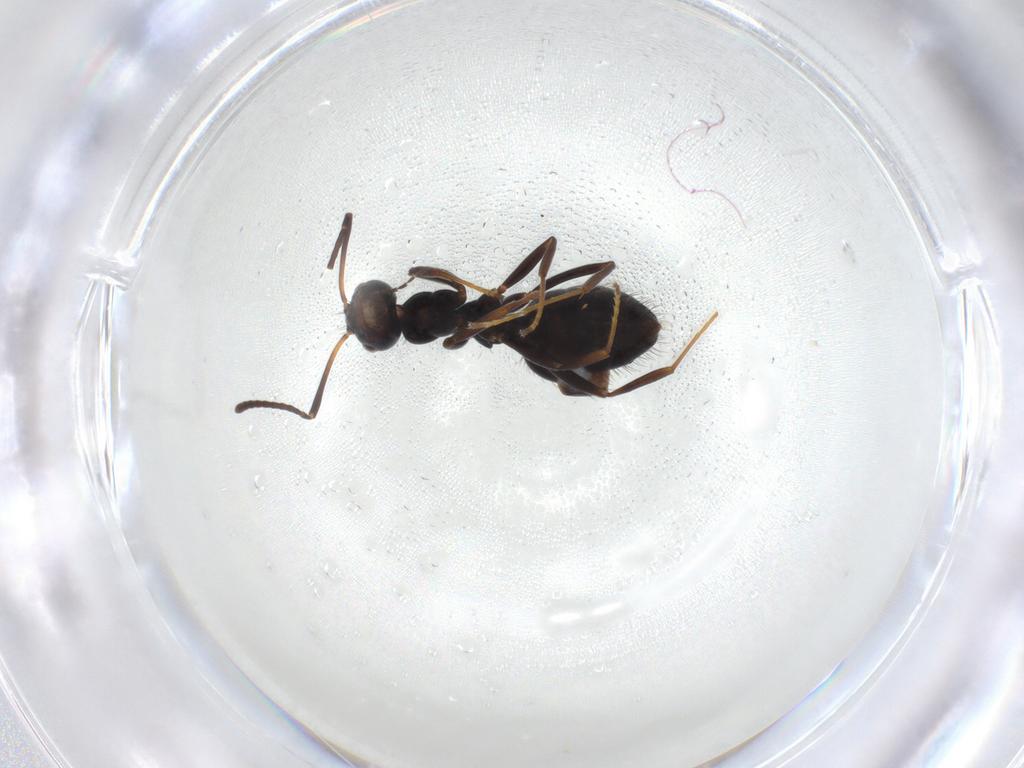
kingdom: Animalia
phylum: Arthropoda
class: Insecta
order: Hymenoptera
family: Formicidae
